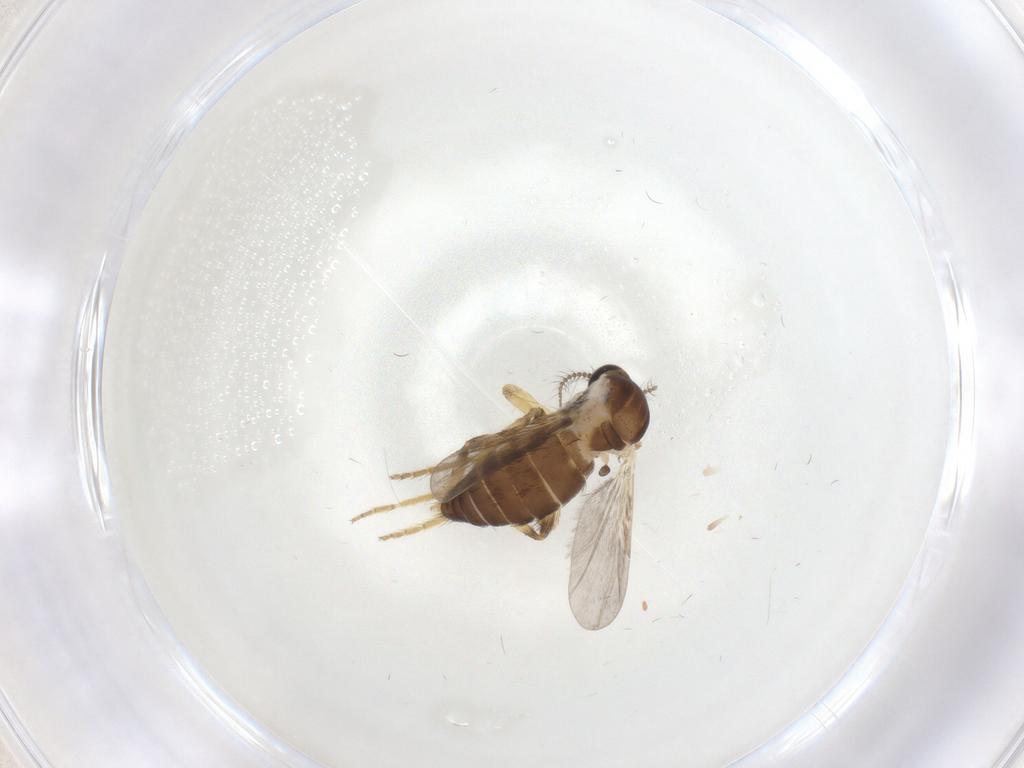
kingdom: Animalia
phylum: Arthropoda
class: Insecta
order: Diptera
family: Ceratopogonidae
